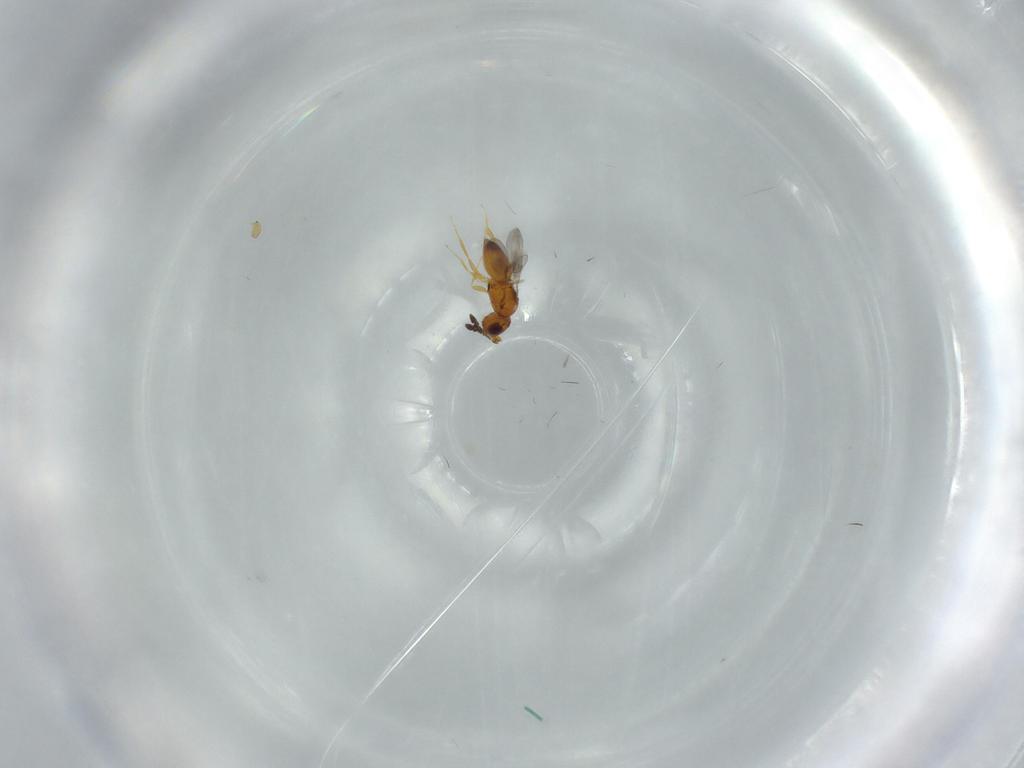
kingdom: Animalia
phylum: Arthropoda
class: Insecta
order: Hymenoptera
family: Ceraphronidae
